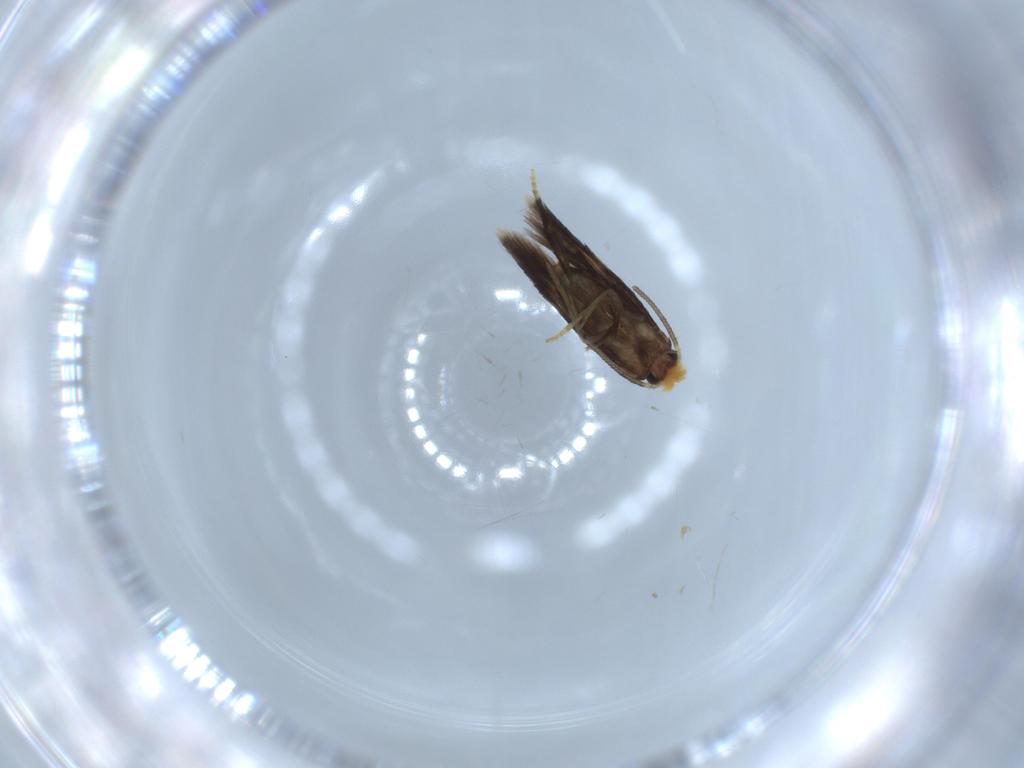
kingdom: Animalia
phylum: Arthropoda
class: Insecta
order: Lepidoptera
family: Nepticulidae
